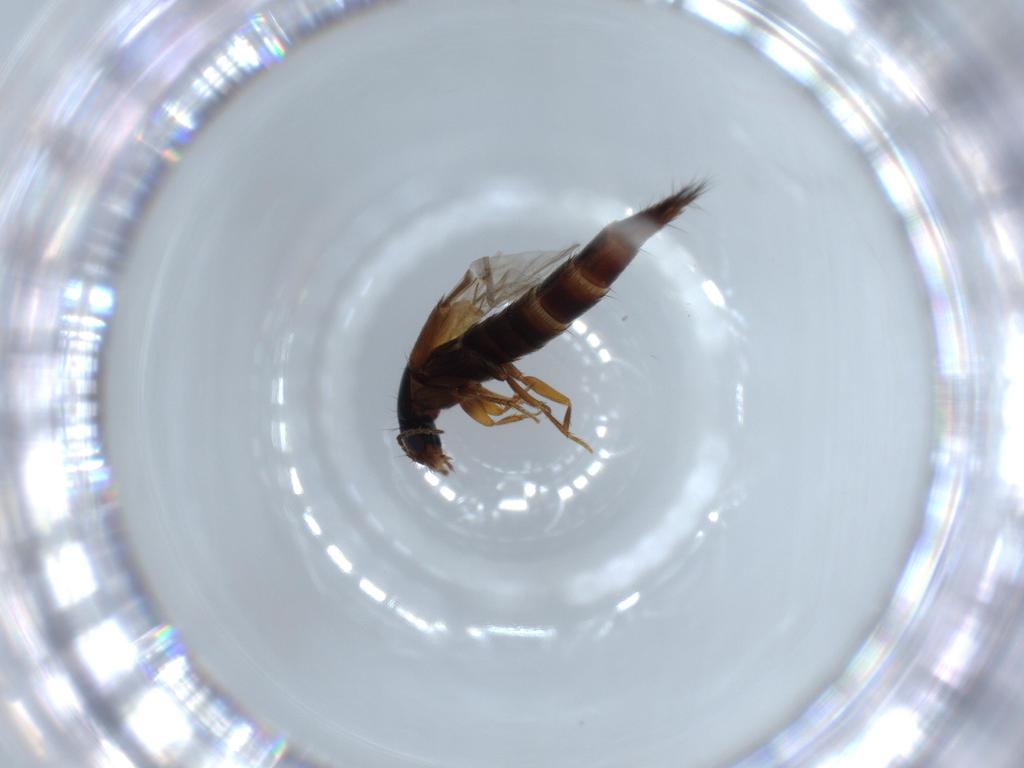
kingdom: Animalia
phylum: Arthropoda
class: Insecta
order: Coleoptera
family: Staphylinidae
